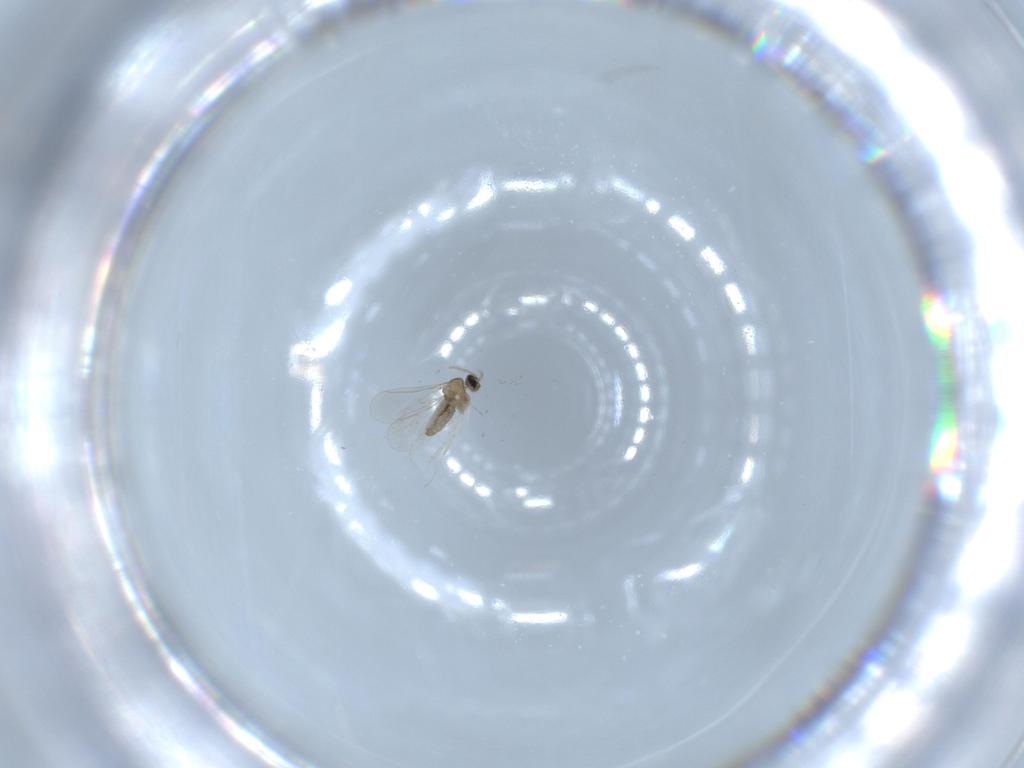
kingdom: Animalia
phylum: Arthropoda
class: Insecta
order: Diptera
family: Cecidomyiidae
